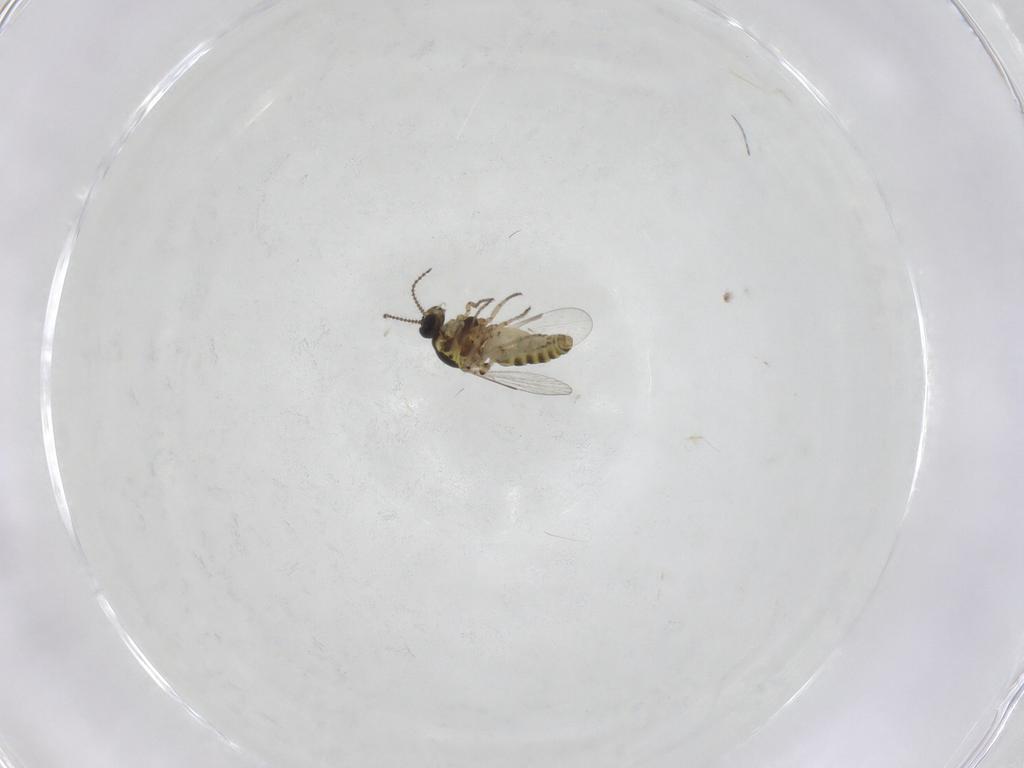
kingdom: Animalia
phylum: Arthropoda
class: Insecta
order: Diptera
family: Ceratopogonidae
